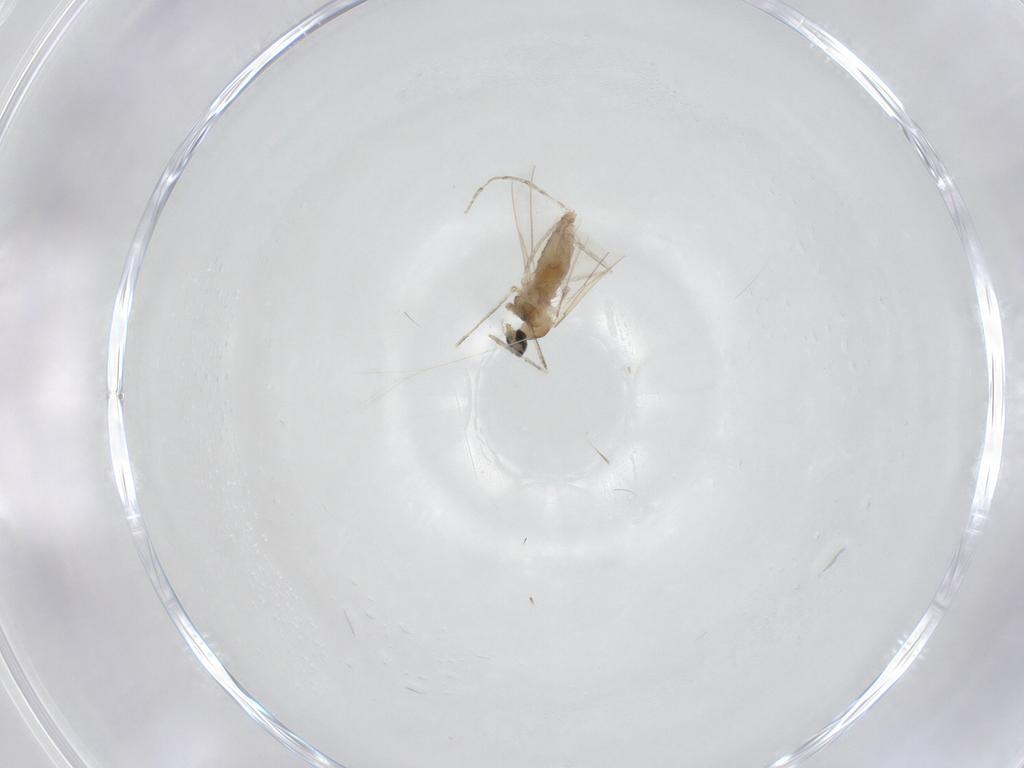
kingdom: Animalia
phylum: Arthropoda
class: Insecta
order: Diptera
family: Cecidomyiidae
